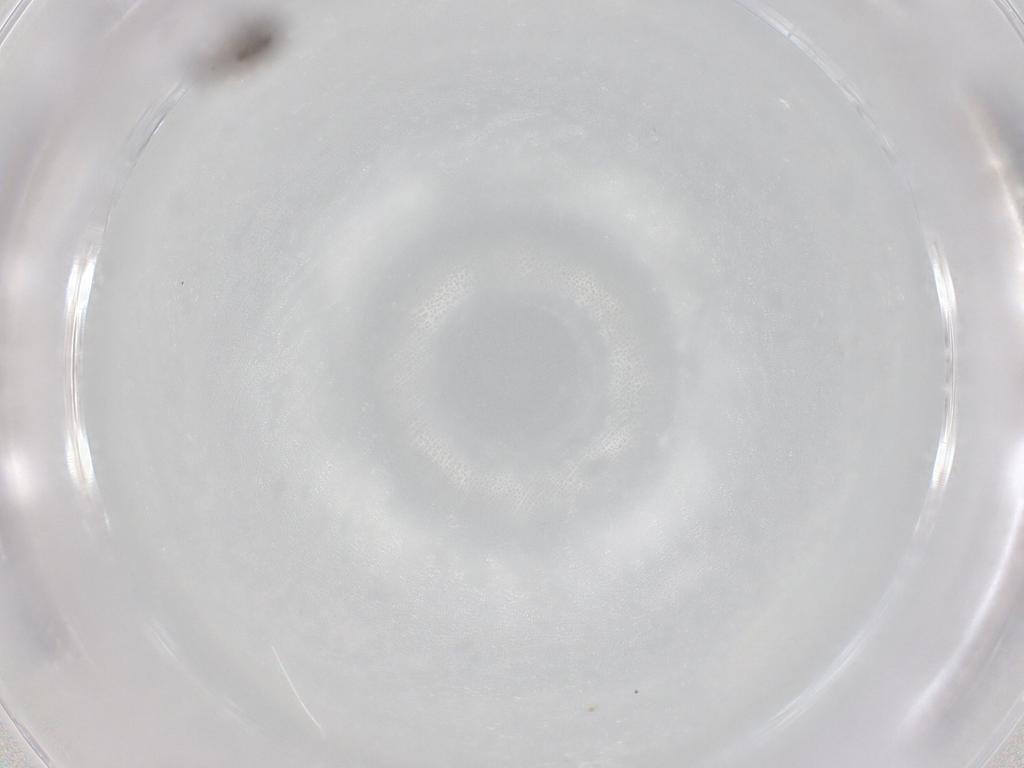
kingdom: Animalia
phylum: Arthropoda
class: Insecta
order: Hymenoptera
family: Scelionidae
